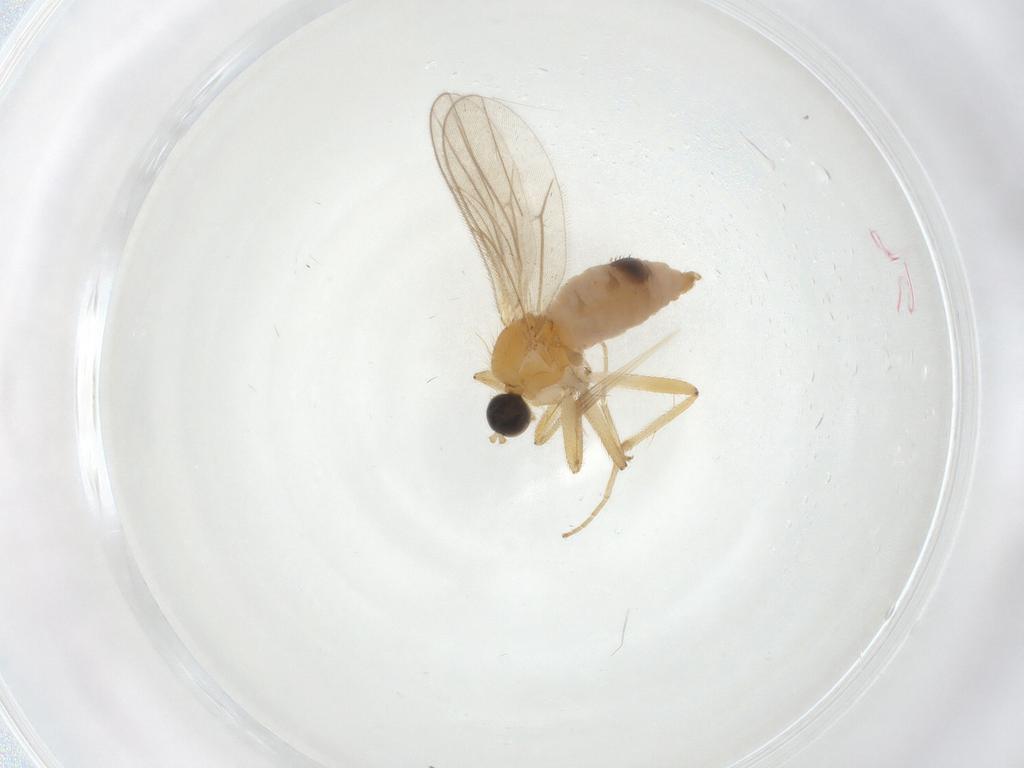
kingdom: Animalia
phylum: Arthropoda
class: Insecta
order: Diptera
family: Hybotidae
